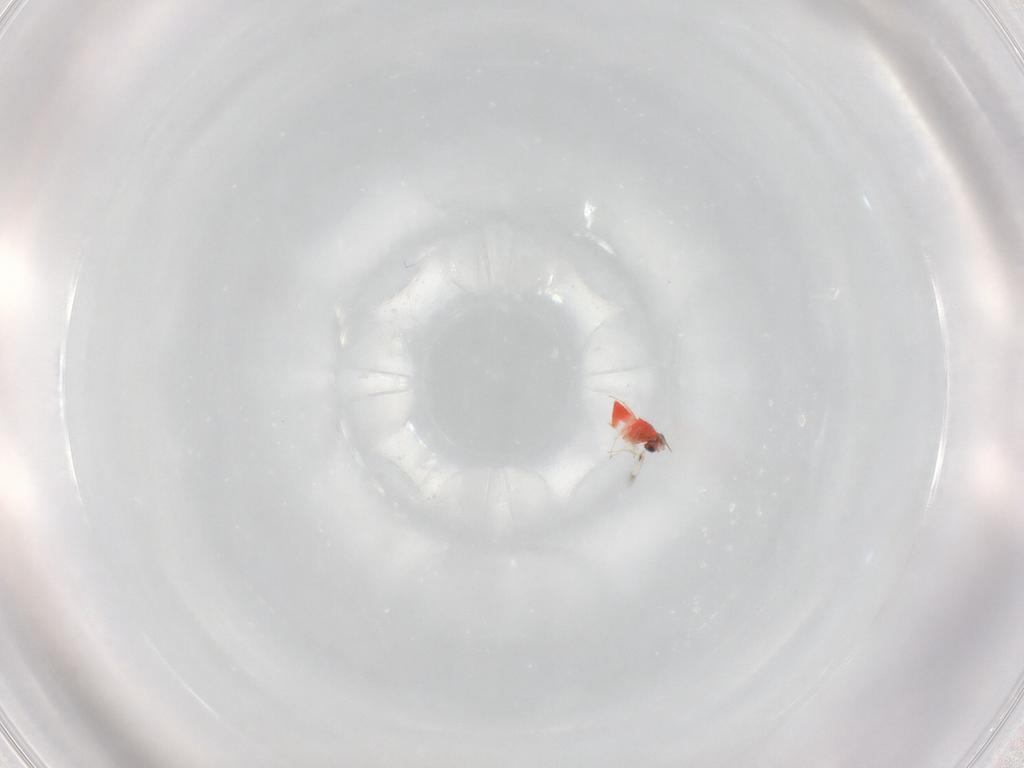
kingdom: Animalia
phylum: Arthropoda
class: Insecta
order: Hymenoptera
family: Trichogrammatidae
